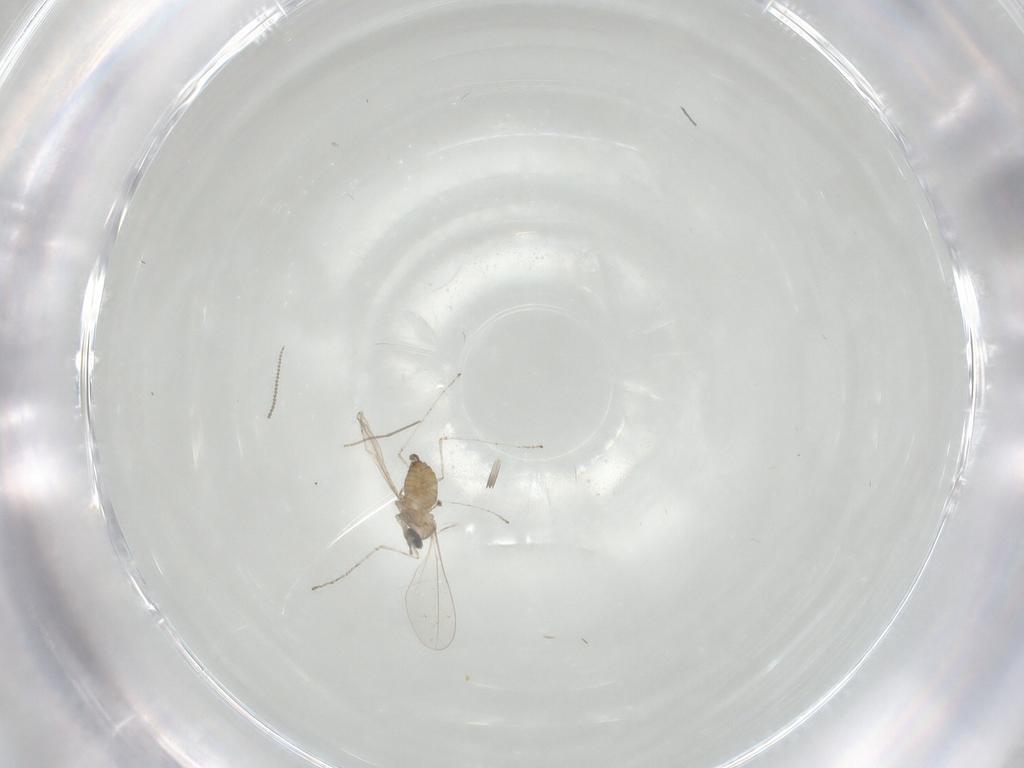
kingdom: Animalia
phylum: Arthropoda
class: Insecta
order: Diptera
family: Cecidomyiidae
